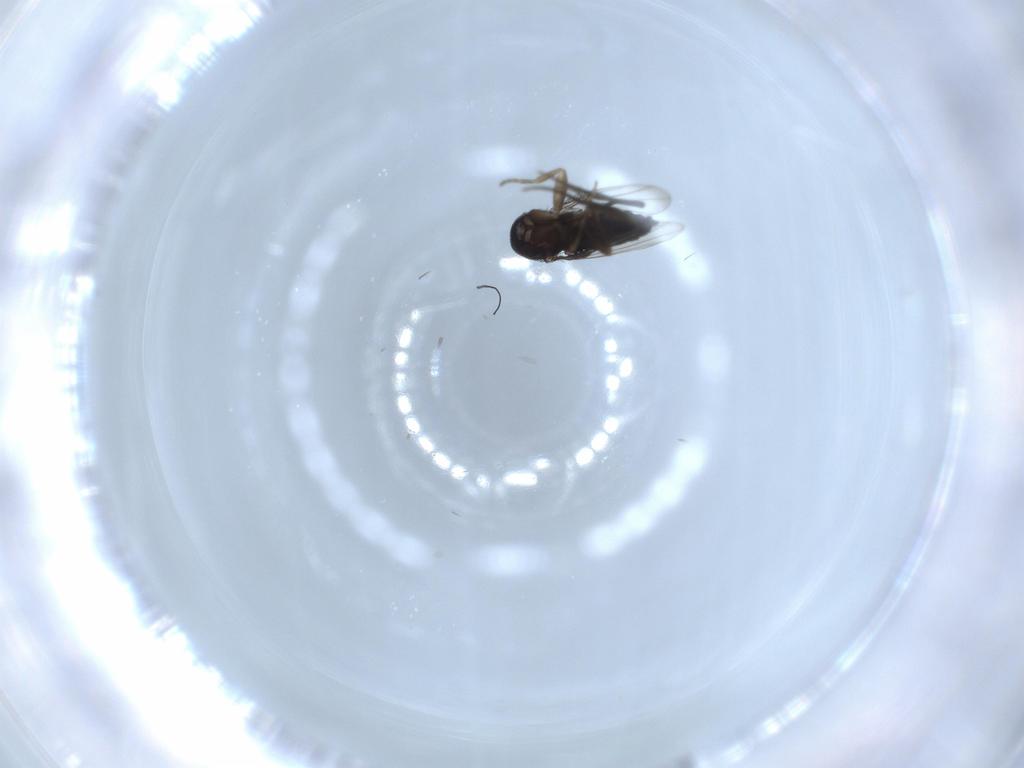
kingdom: Animalia
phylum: Arthropoda
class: Insecta
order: Diptera
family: Phoridae
